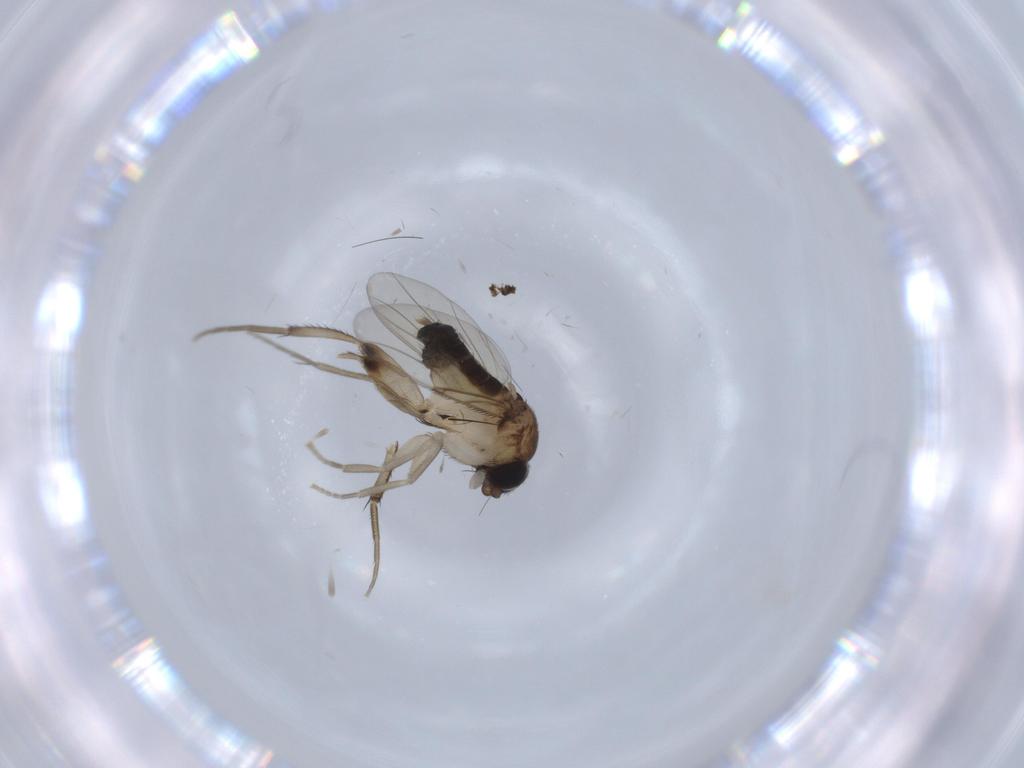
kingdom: Animalia
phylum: Arthropoda
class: Insecta
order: Diptera
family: Phoridae
